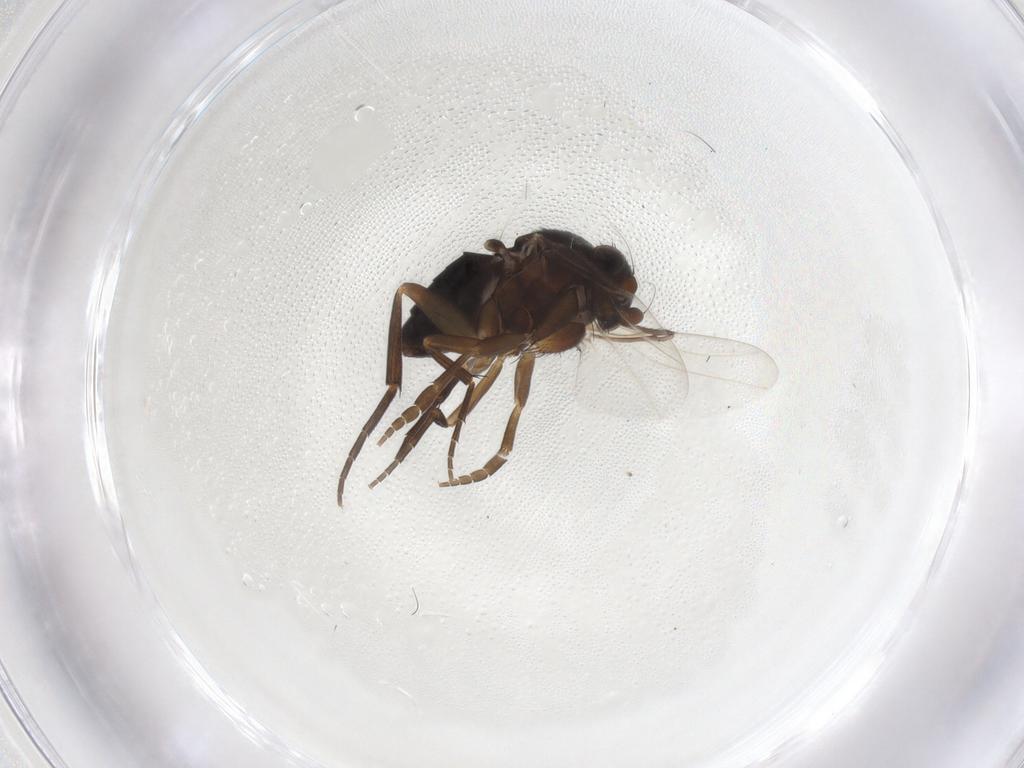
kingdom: Animalia
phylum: Arthropoda
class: Insecta
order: Diptera
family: Phoridae
